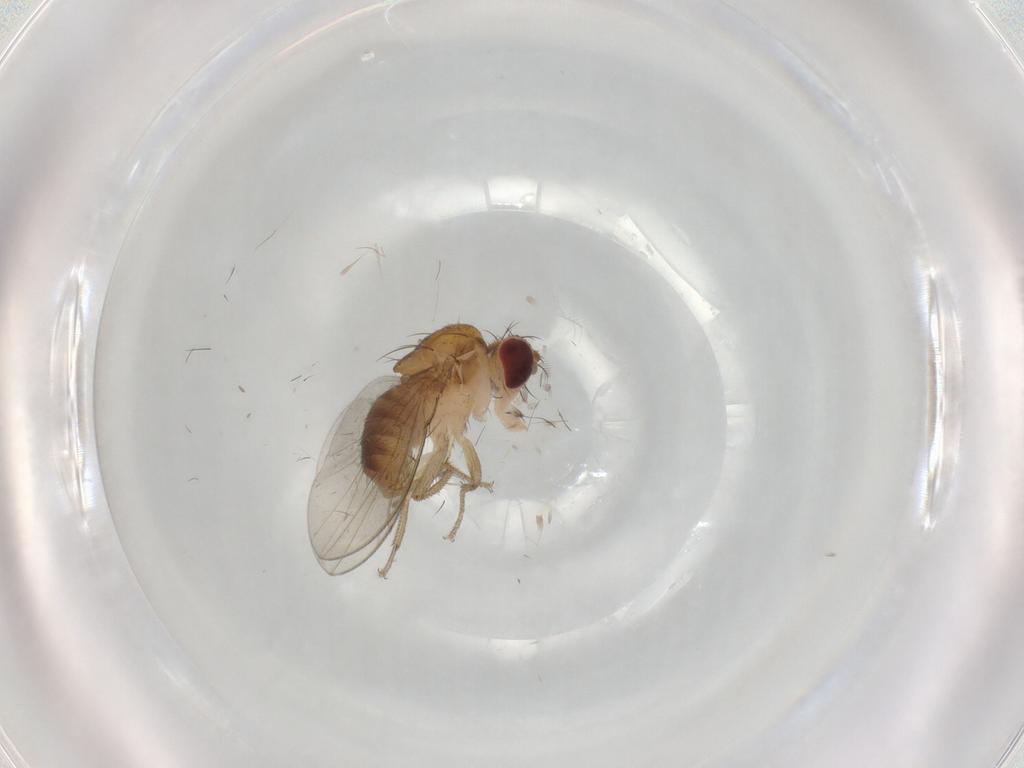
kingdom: Animalia
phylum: Arthropoda
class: Insecta
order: Diptera
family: Drosophilidae
